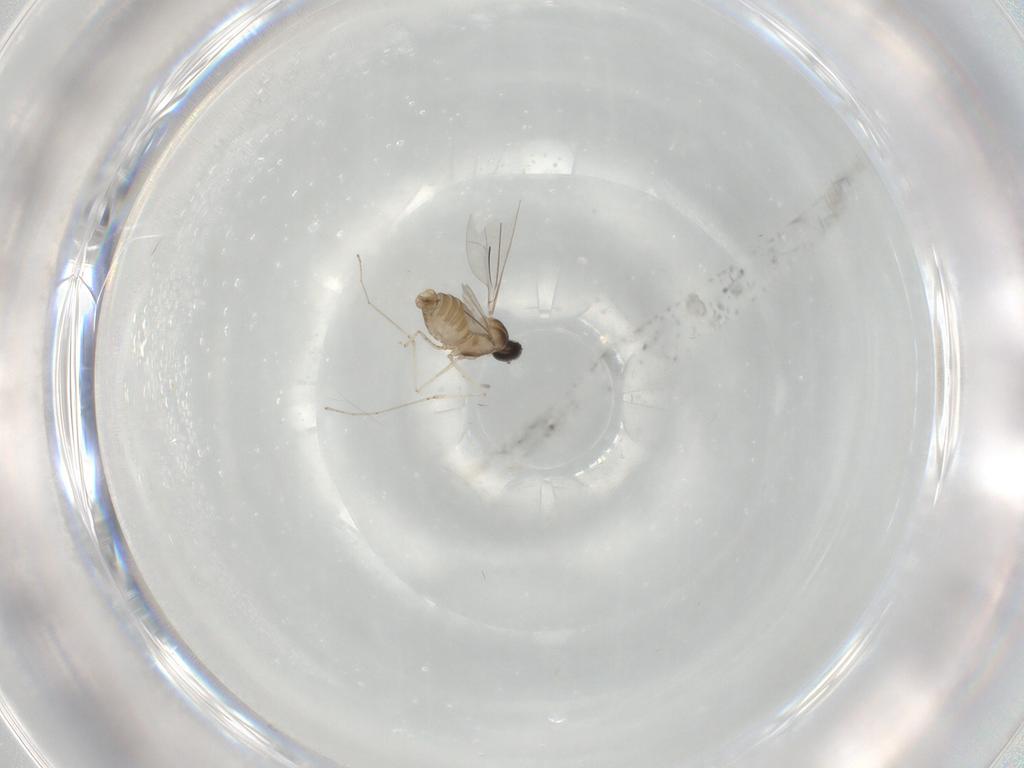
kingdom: Animalia
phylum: Arthropoda
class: Insecta
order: Diptera
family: Cecidomyiidae
